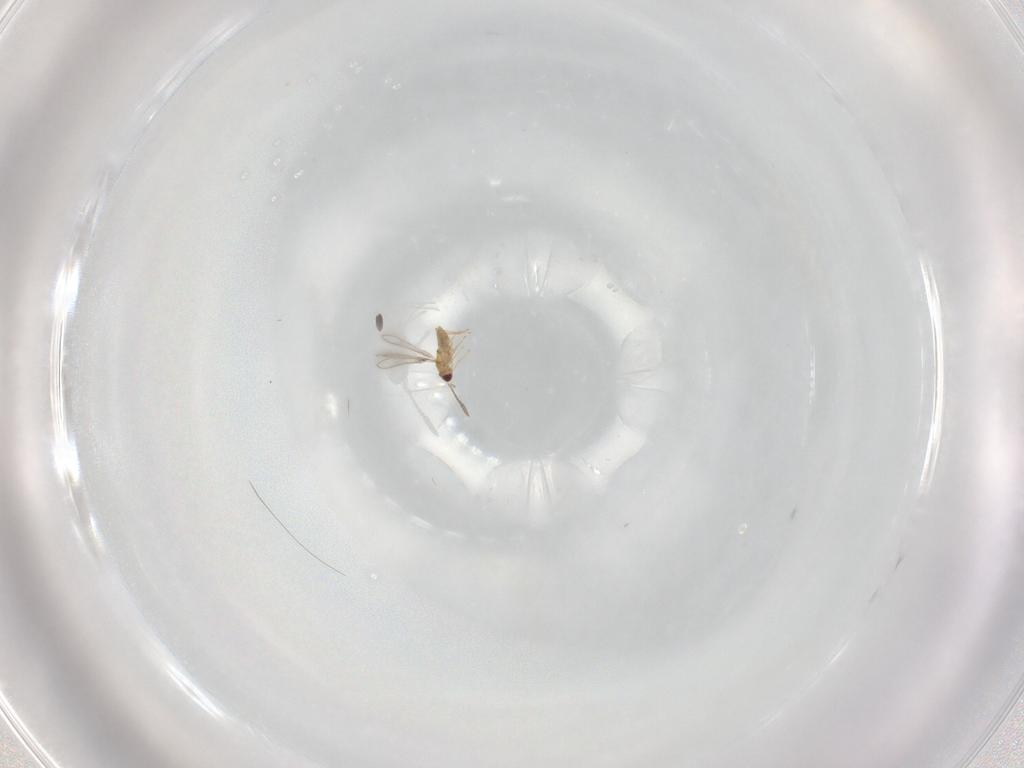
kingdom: Animalia
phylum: Arthropoda
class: Insecta
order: Hymenoptera
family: Mymaridae
